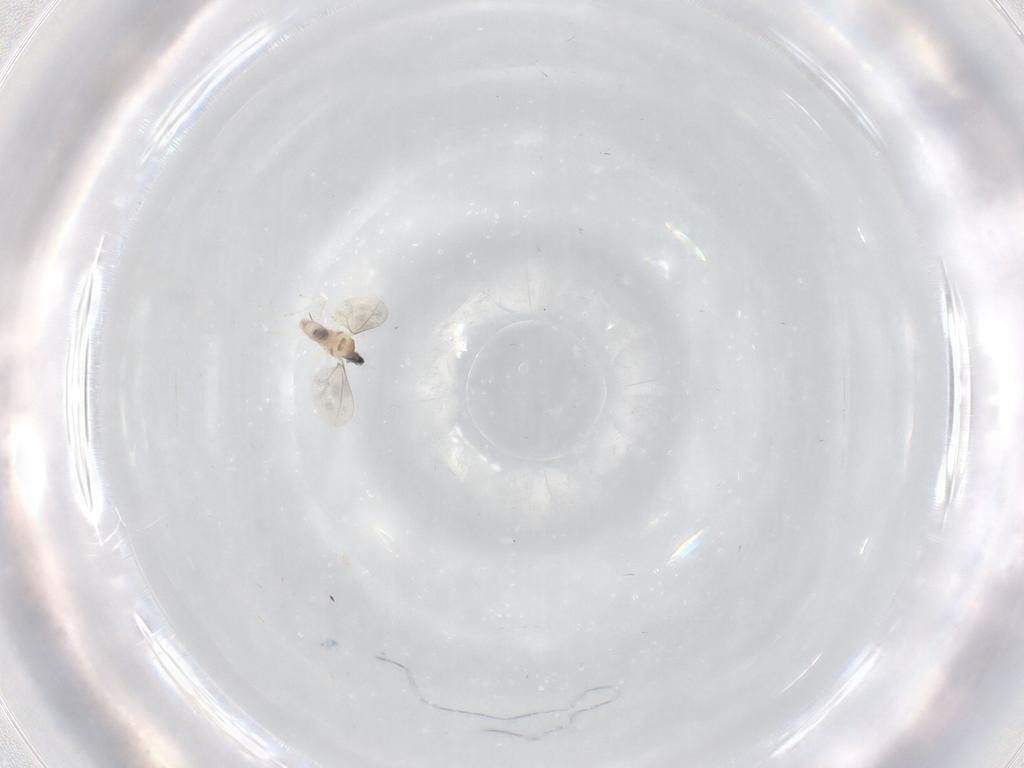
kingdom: Animalia
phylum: Arthropoda
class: Insecta
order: Diptera
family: Cecidomyiidae
